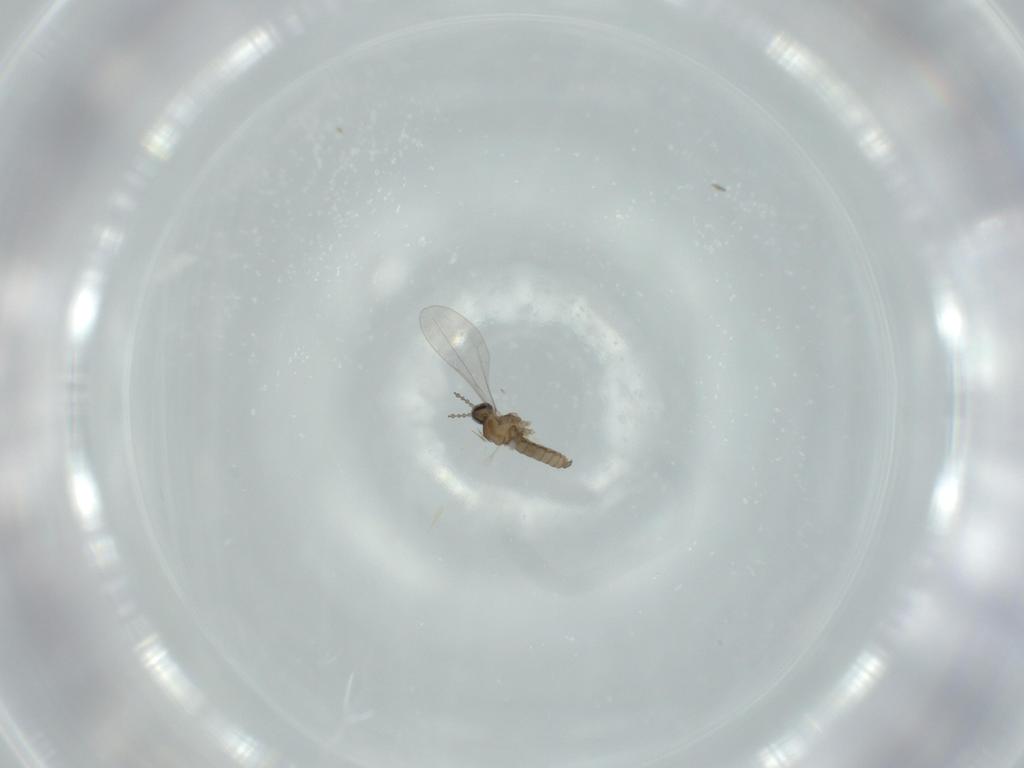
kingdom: Animalia
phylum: Arthropoda
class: Insecta
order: Diptera
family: Cecidomyiidae
